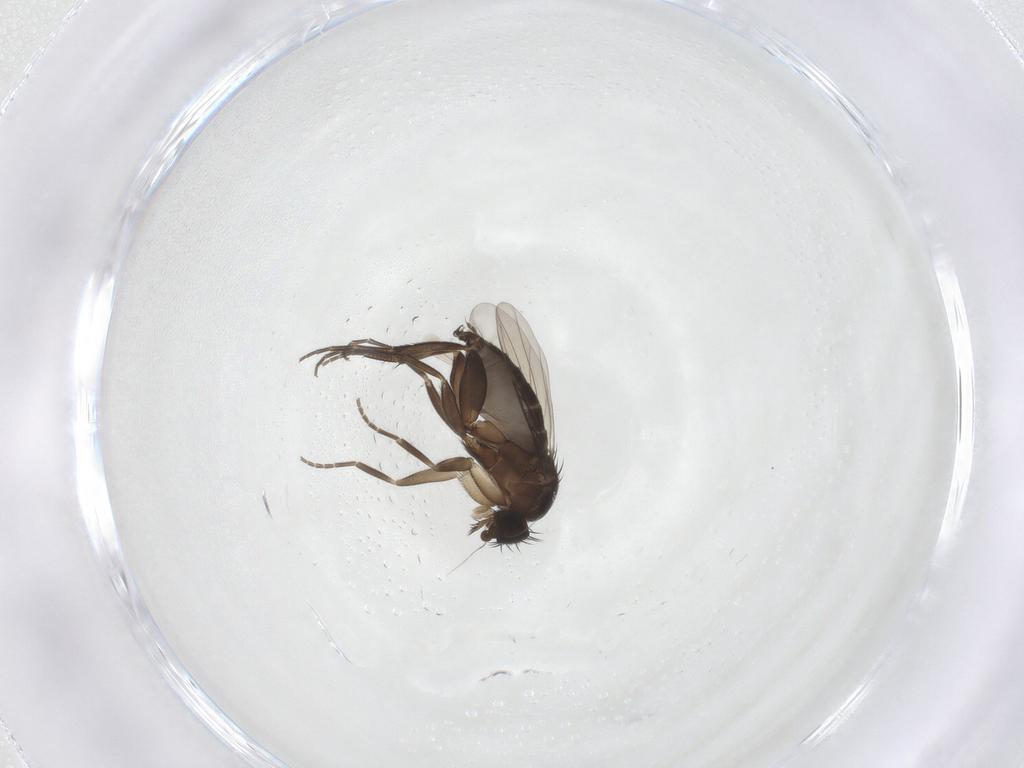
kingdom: Animalia
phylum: Arthropoda
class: Insecta
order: Diptera
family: Phoridae
